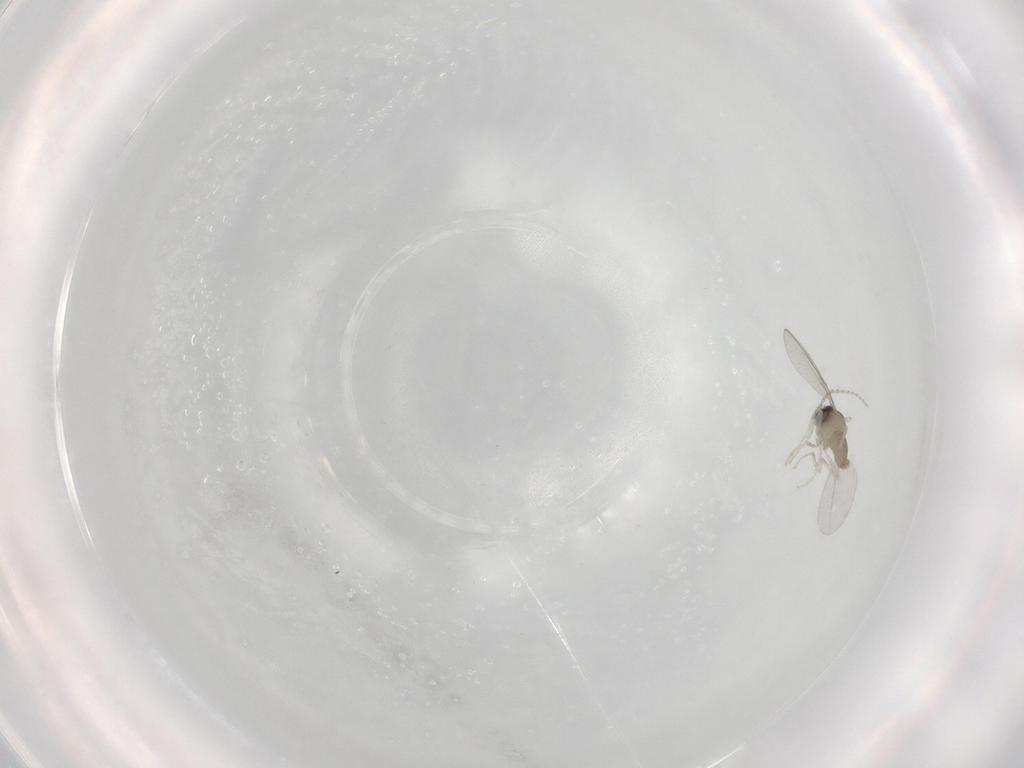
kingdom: Animalia
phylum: Arthropoda
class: Insecta
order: Diptera
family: Cecidomyiidae
